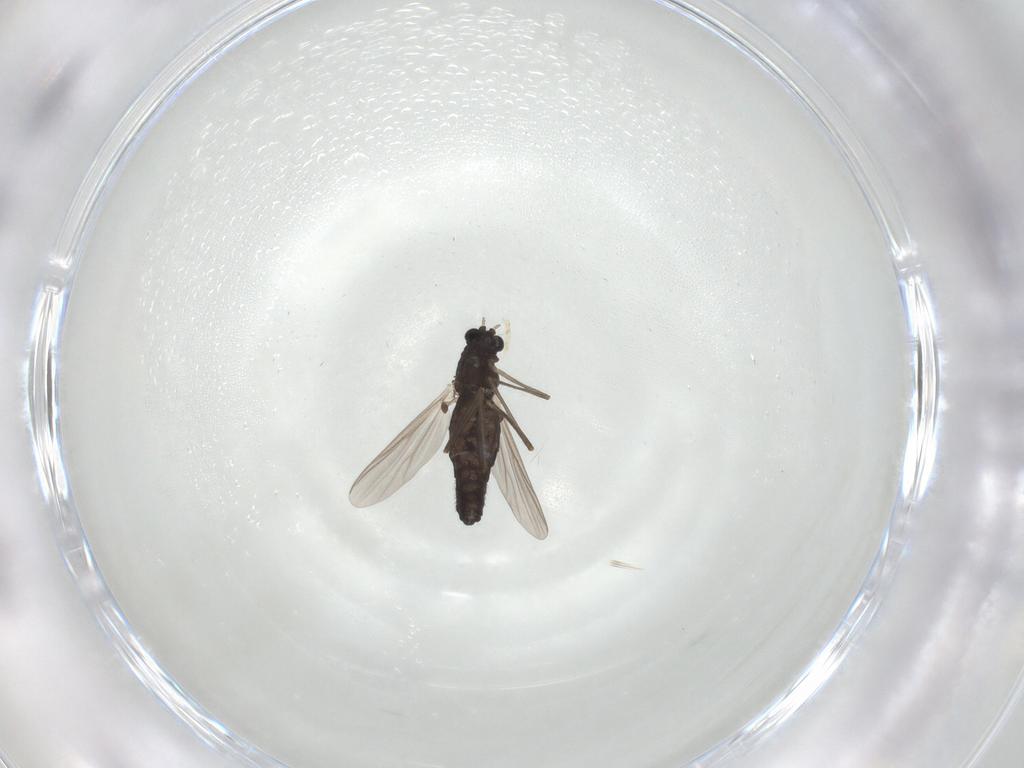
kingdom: Animalia
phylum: Arthropoda
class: Insecta
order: Diptera
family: Chironomidae
